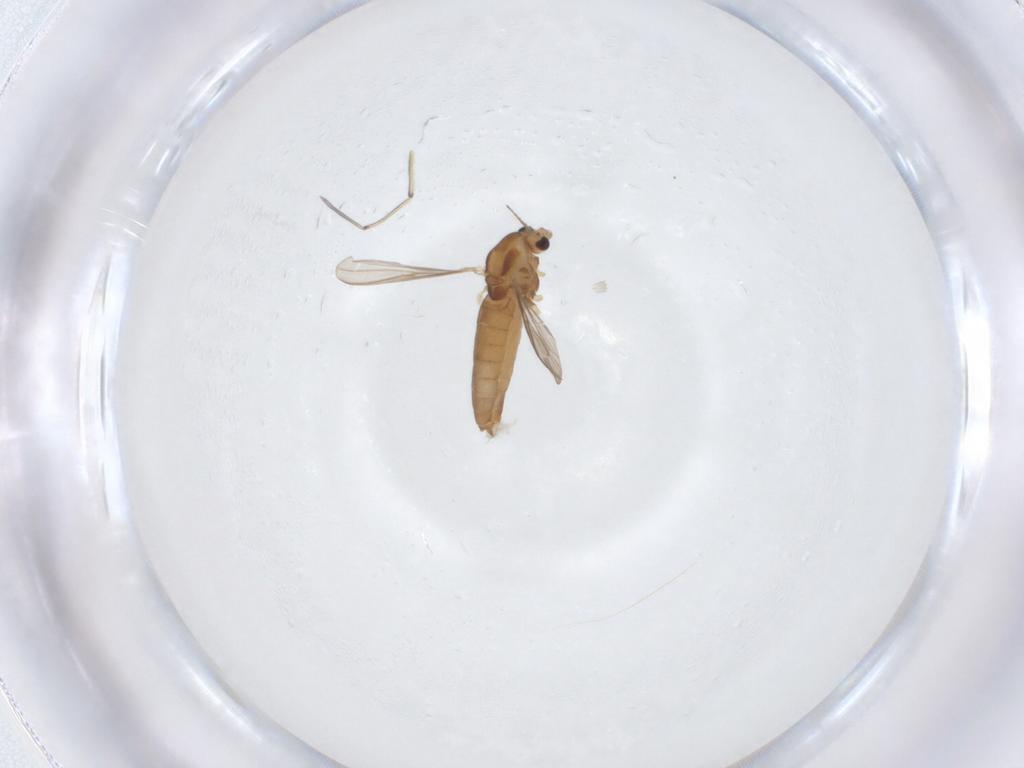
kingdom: Animalia
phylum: Arthropoda
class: Insecta
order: Diptera
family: Chironomidae
